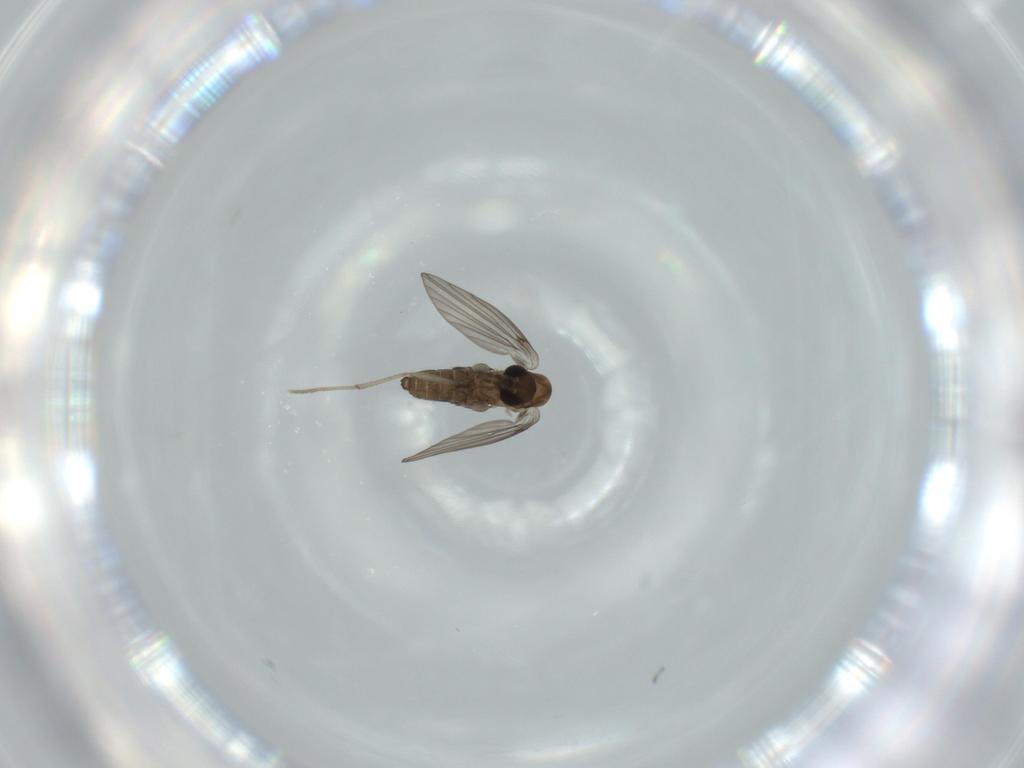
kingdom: Animalia
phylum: Arthropoda
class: Insecta
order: Diptera
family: Psychodidae
